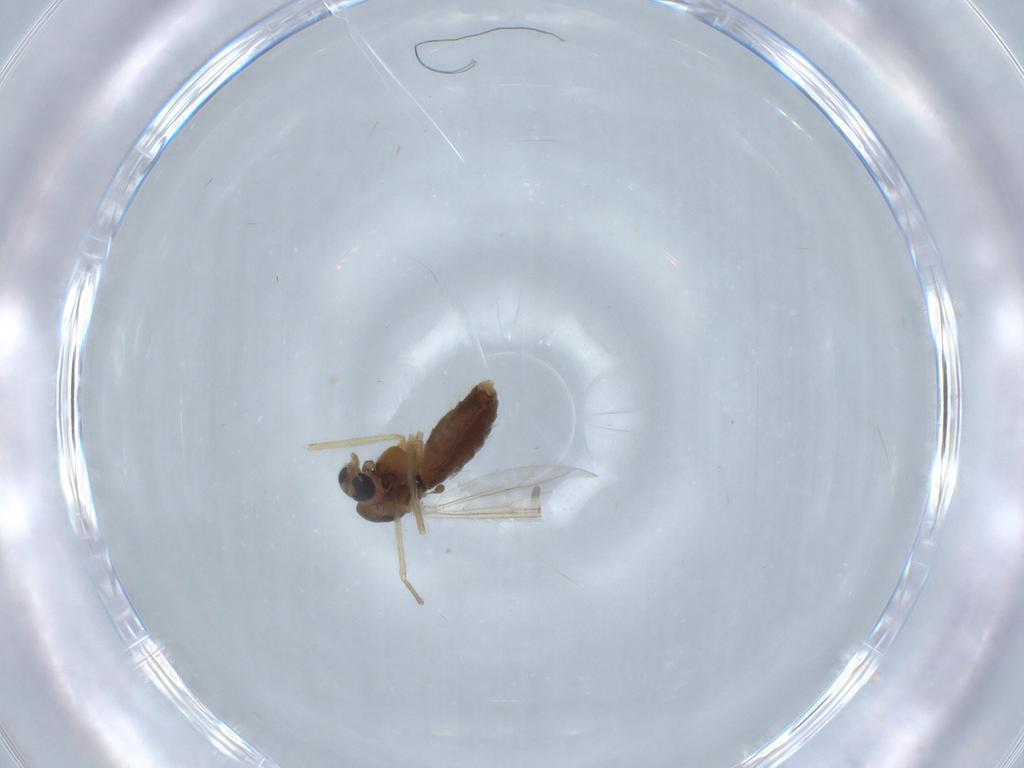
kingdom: Animalia
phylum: Arthropoda
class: Insecta
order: Diptera
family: Chironomidae
